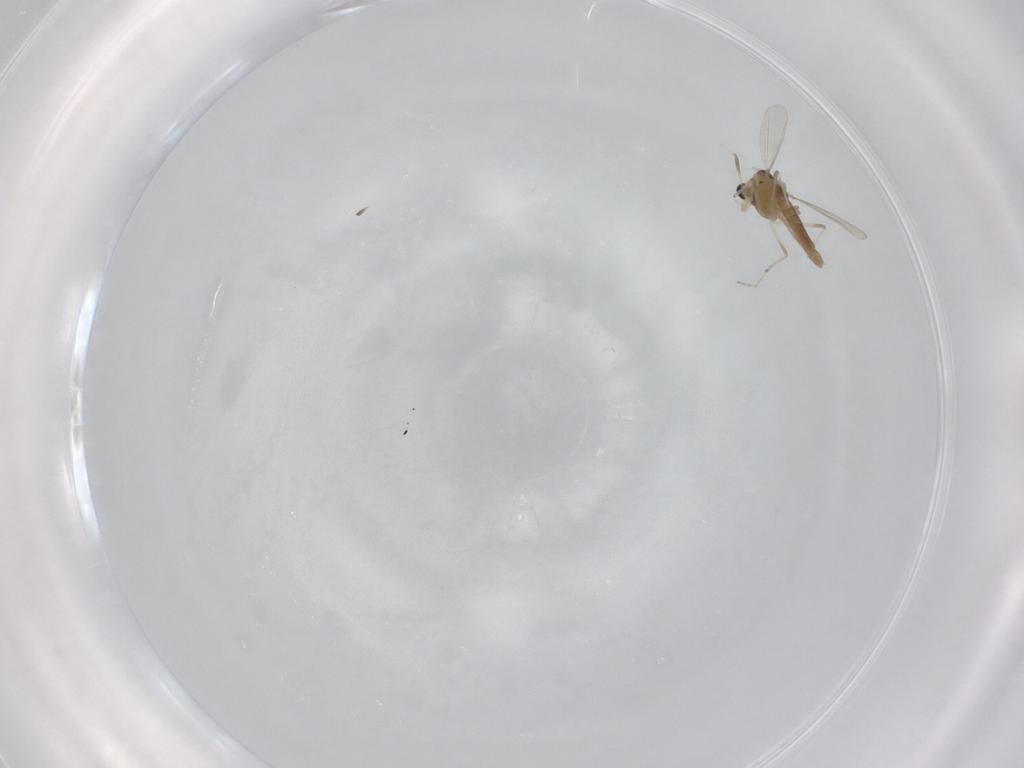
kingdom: Animalia
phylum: Arthropoda
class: Insecta
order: Diptera
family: Chironomidae
